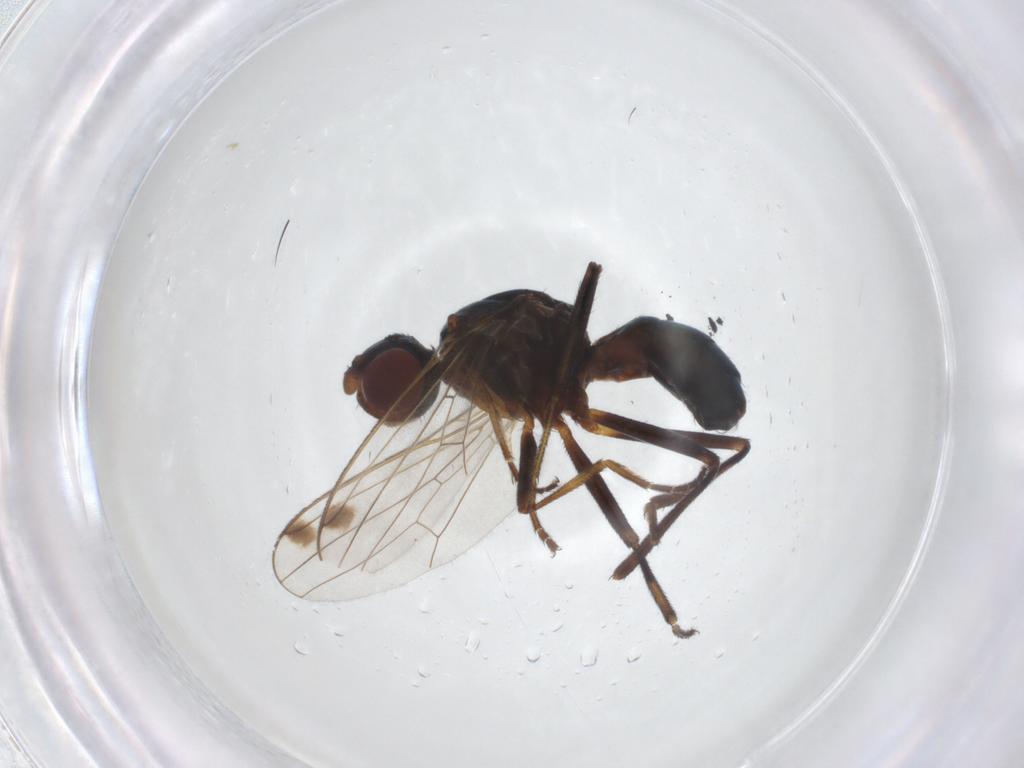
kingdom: Animalia
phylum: Arthropoda
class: Insecta
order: Diptera
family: Sepsidae
